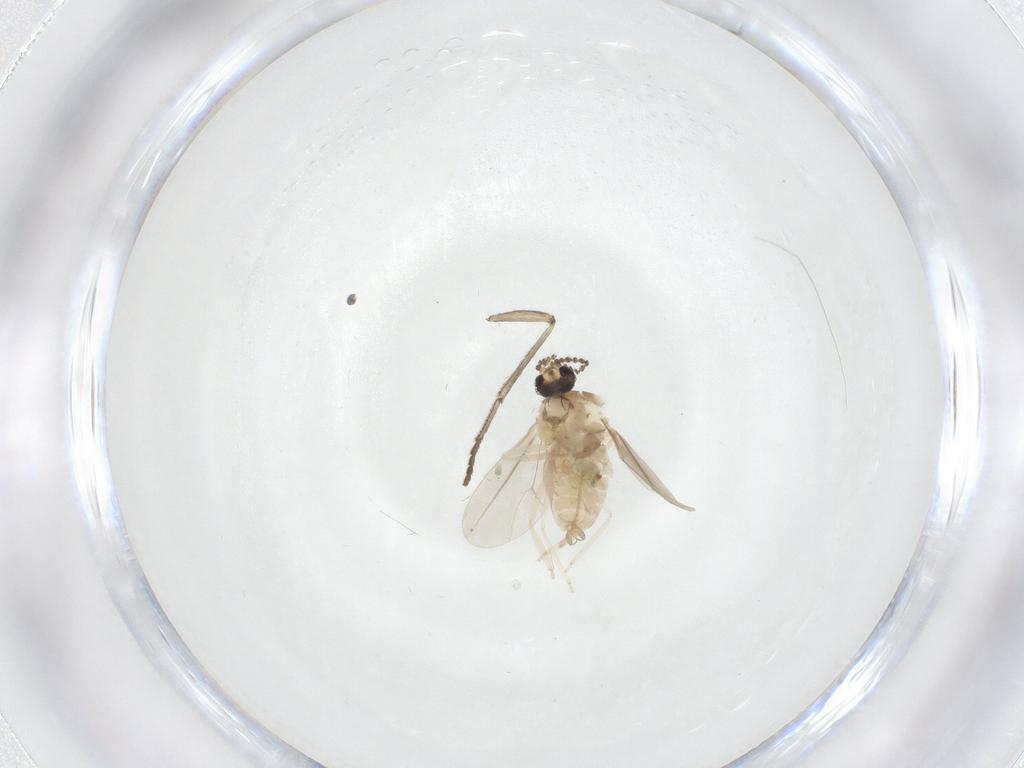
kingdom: Animalia
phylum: Arthropoda
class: Insecta
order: Diptera
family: Cecidomyiidae
